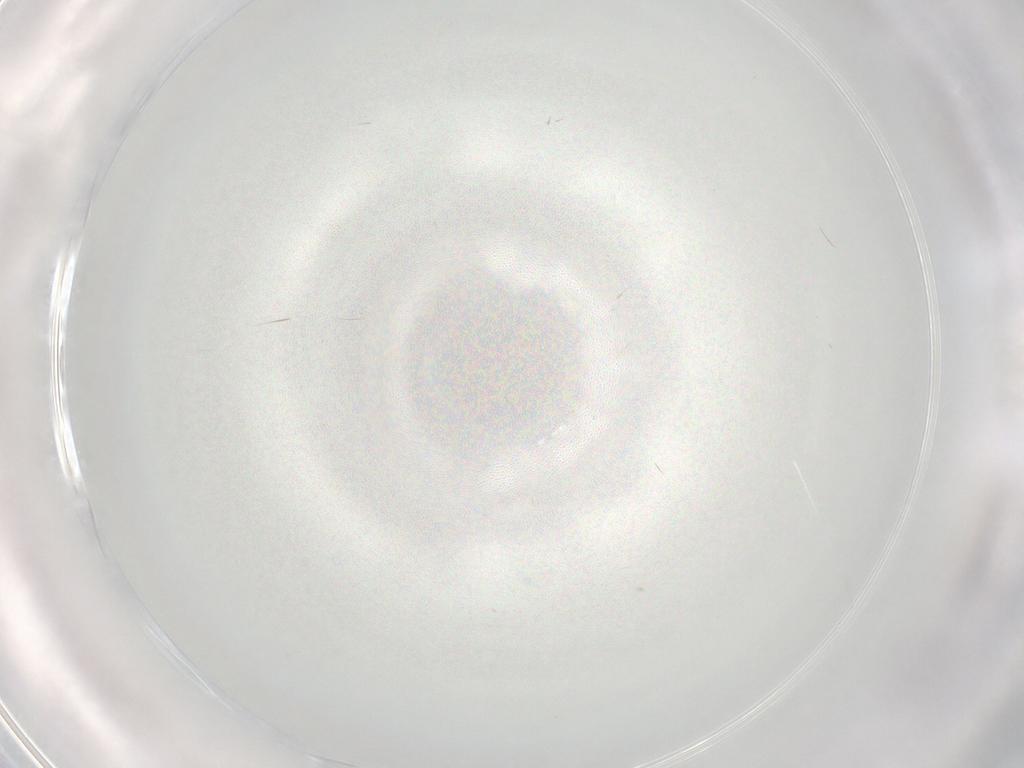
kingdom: Animalia
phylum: Arthropoda
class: Insecta
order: Diptera
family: Cecidomyiidae
